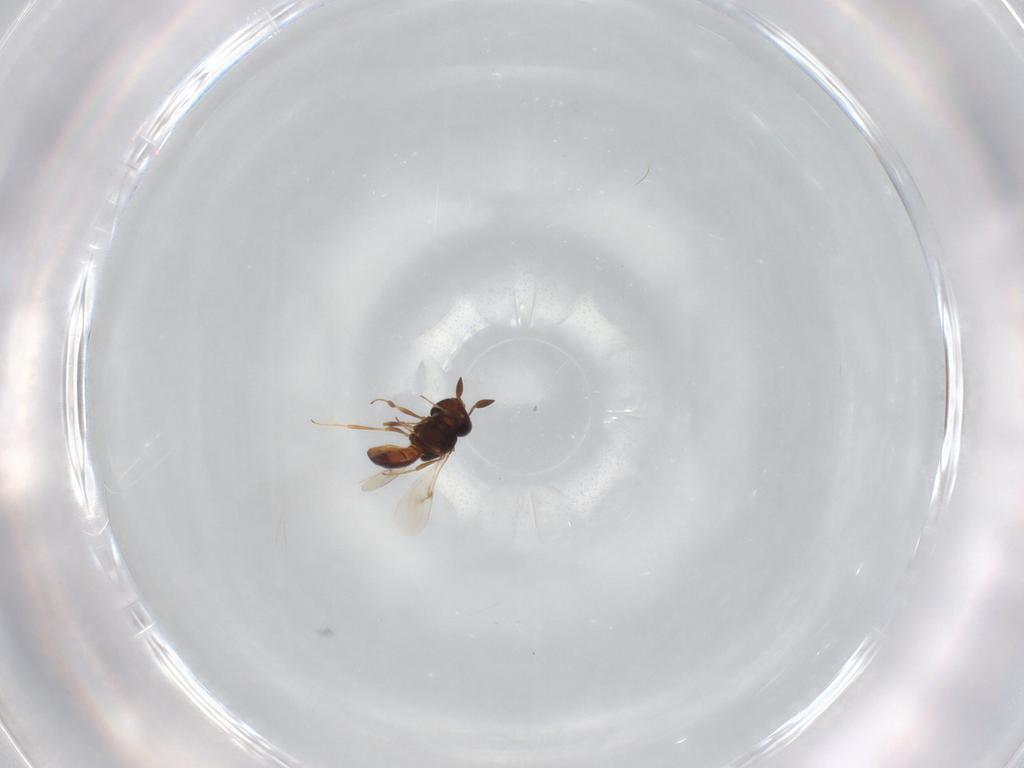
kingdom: Animalia
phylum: Arthropoda
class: Insecta
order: Hymenoptera
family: Scelionidae
